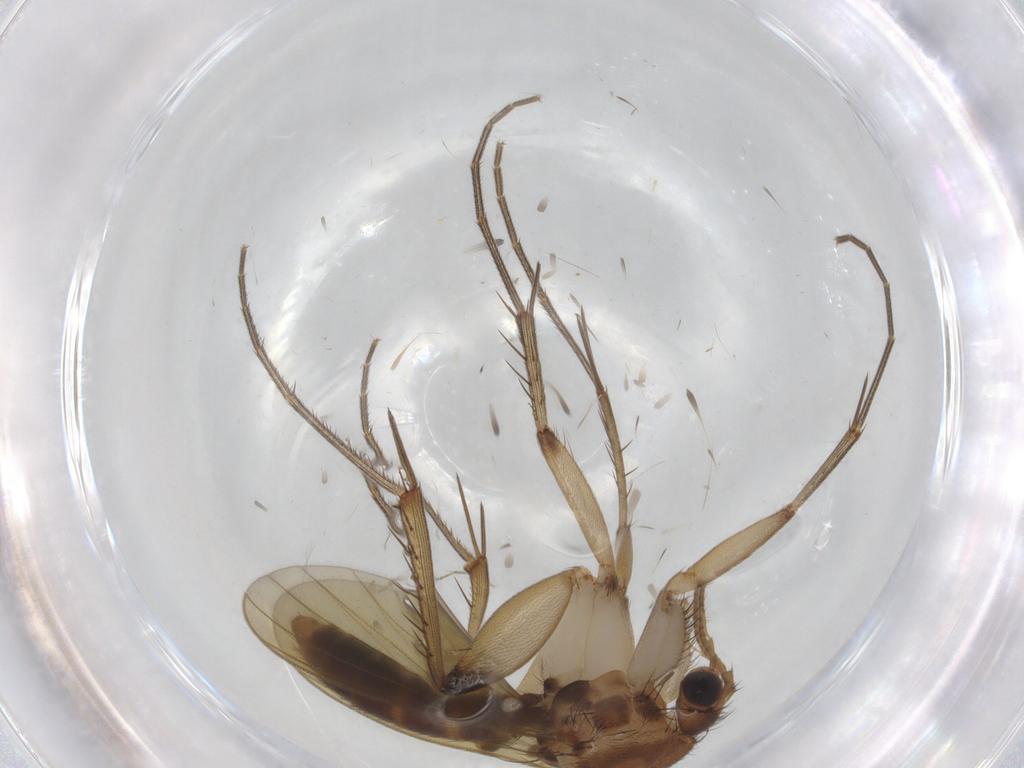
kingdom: Animalia
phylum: Arthropoda
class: Insecta
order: Diptera
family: Mycetophilidae
